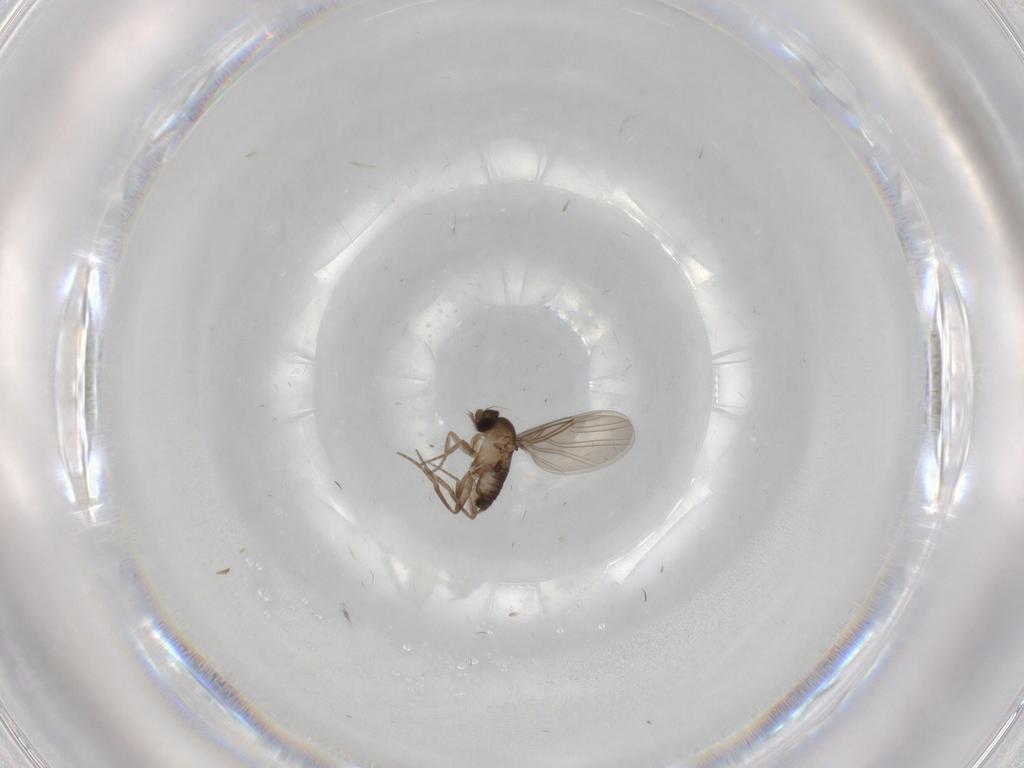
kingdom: Animalia
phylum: Arthropoda
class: Insecta
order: Diptera
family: Phoridae
